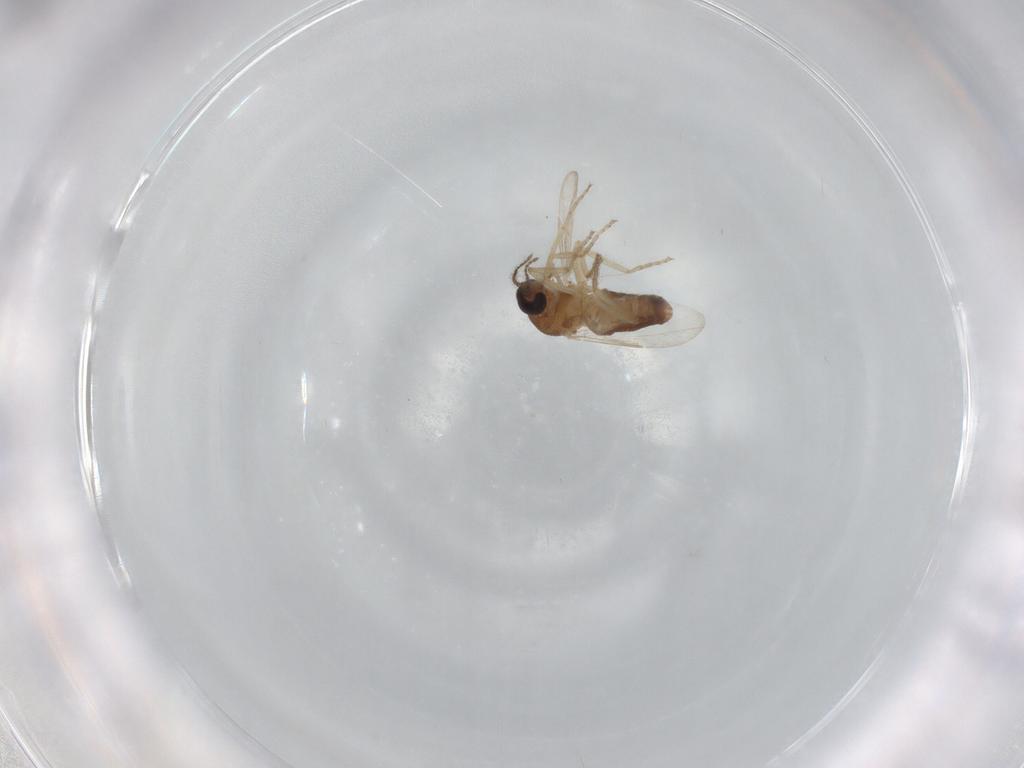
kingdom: Animalia
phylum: Arthropoda
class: Insecta
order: Diptera
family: Ceratopogonidae
